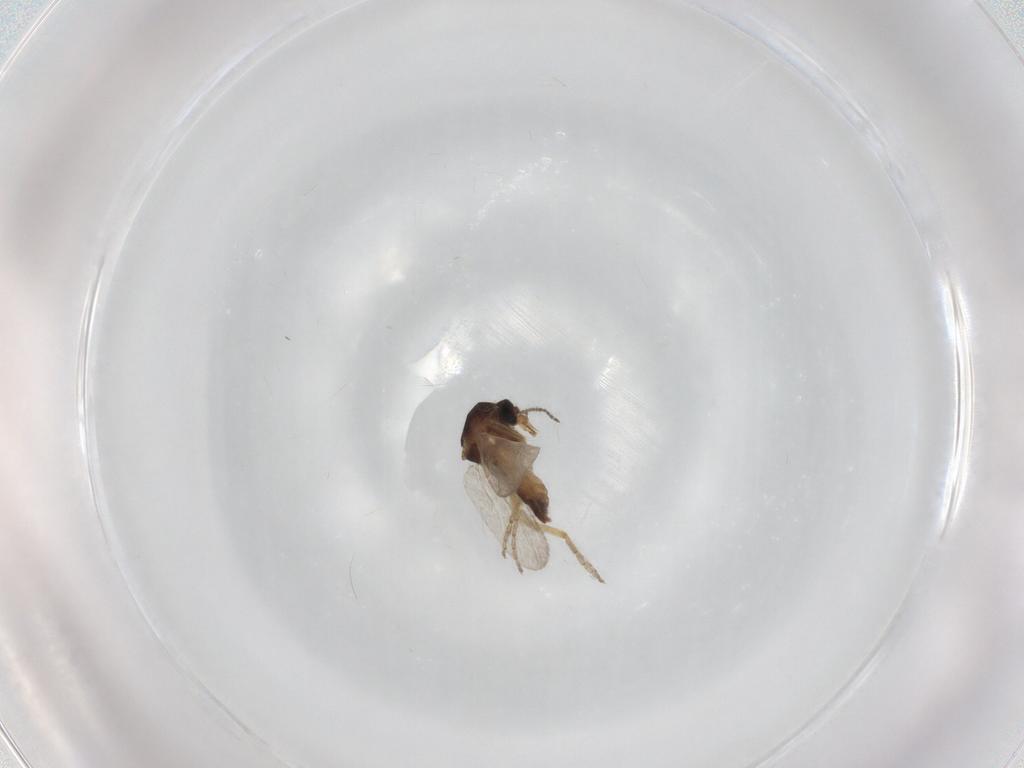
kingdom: Animalia
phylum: Arthropoda
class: Insecta
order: Diptera
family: Ceratopogonidae
